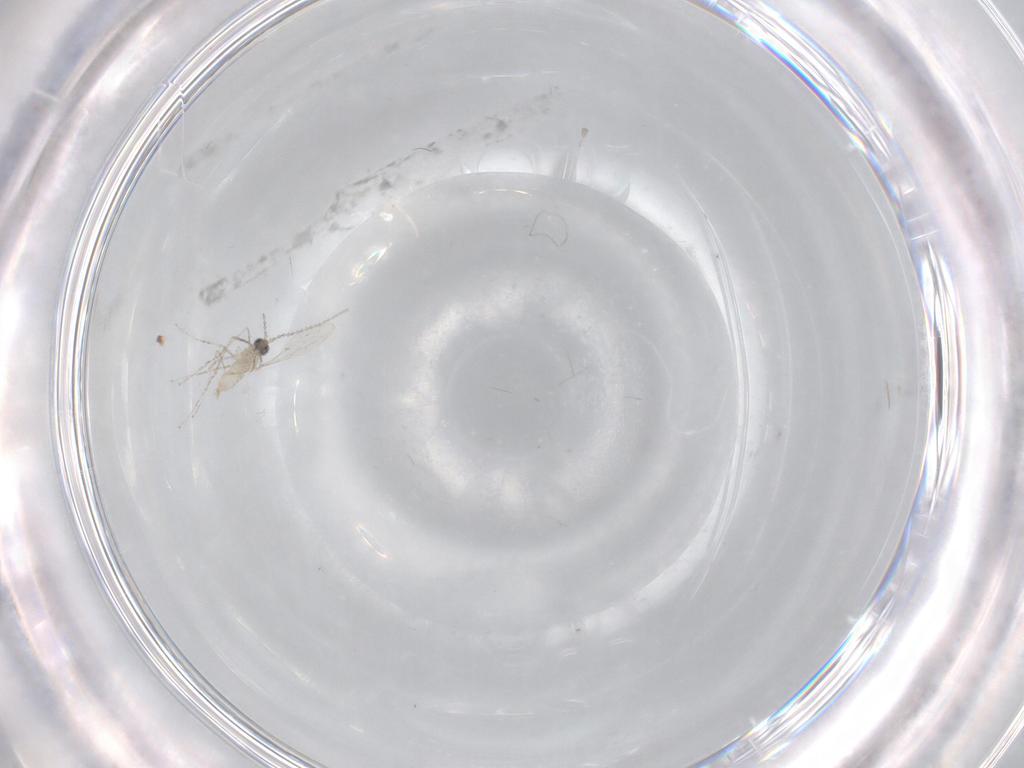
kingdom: Animalia
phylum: Arthropoda
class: Insecta
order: Diptera
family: Cecidomyiidae
